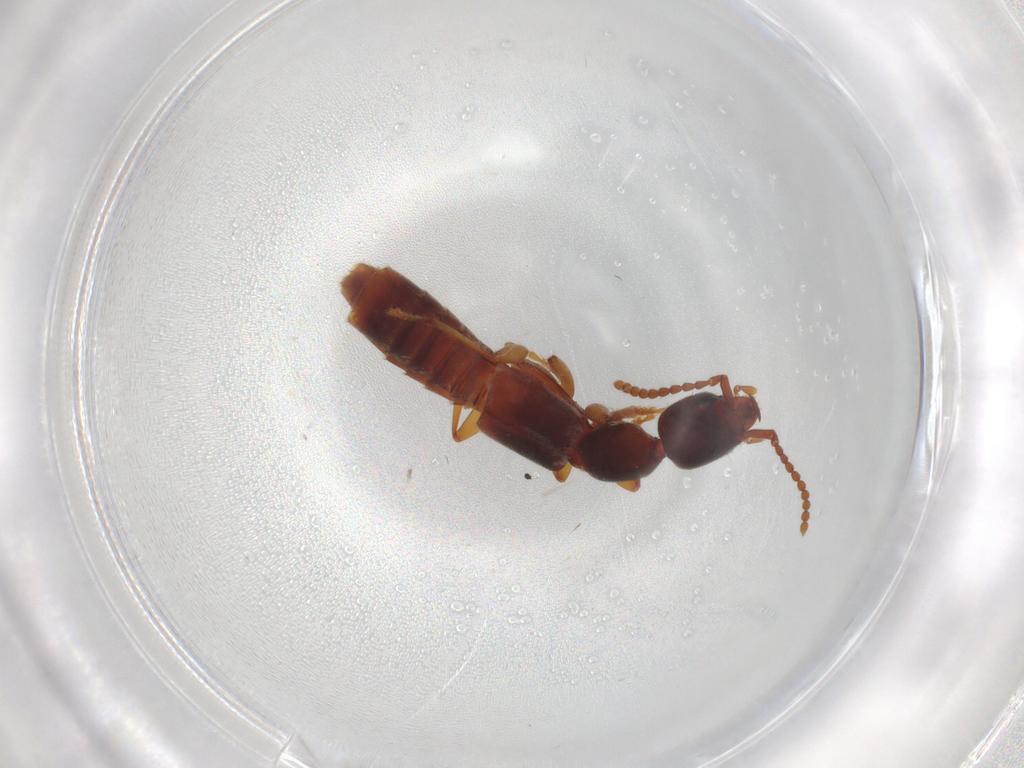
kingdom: Animalia
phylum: Arthropoda
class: Insecta
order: Coleoptera
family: Staphylinidae
